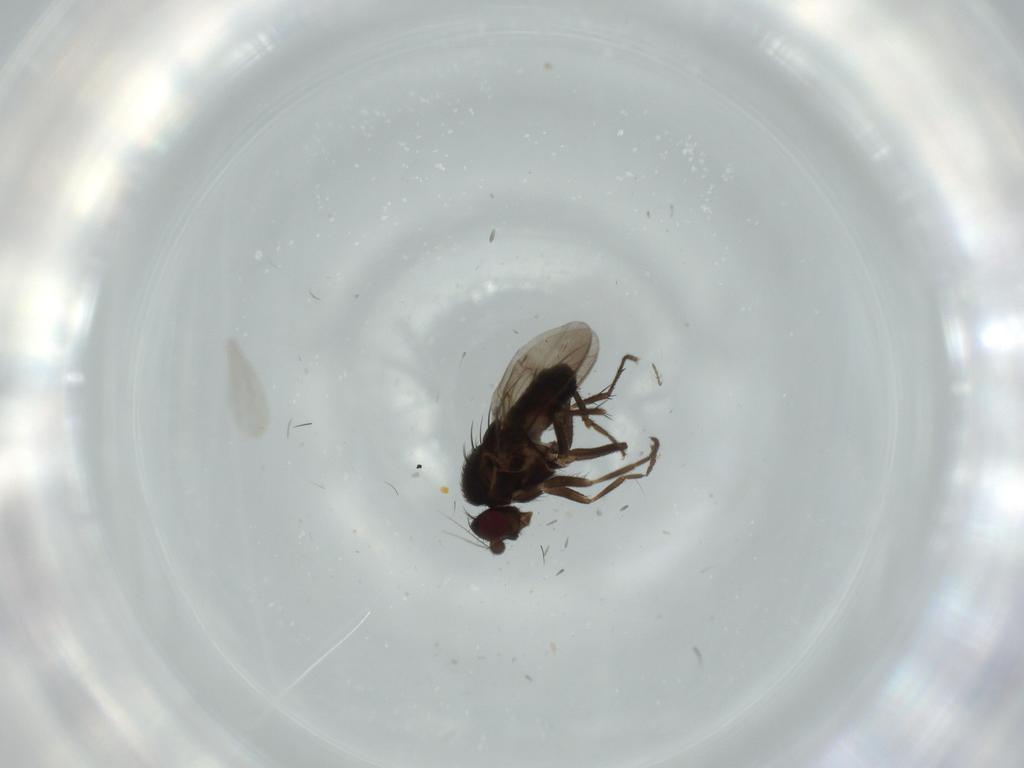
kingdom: Animalia
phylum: Arthropoda
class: Insecta
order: Diptera
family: Sphaeroceridae
